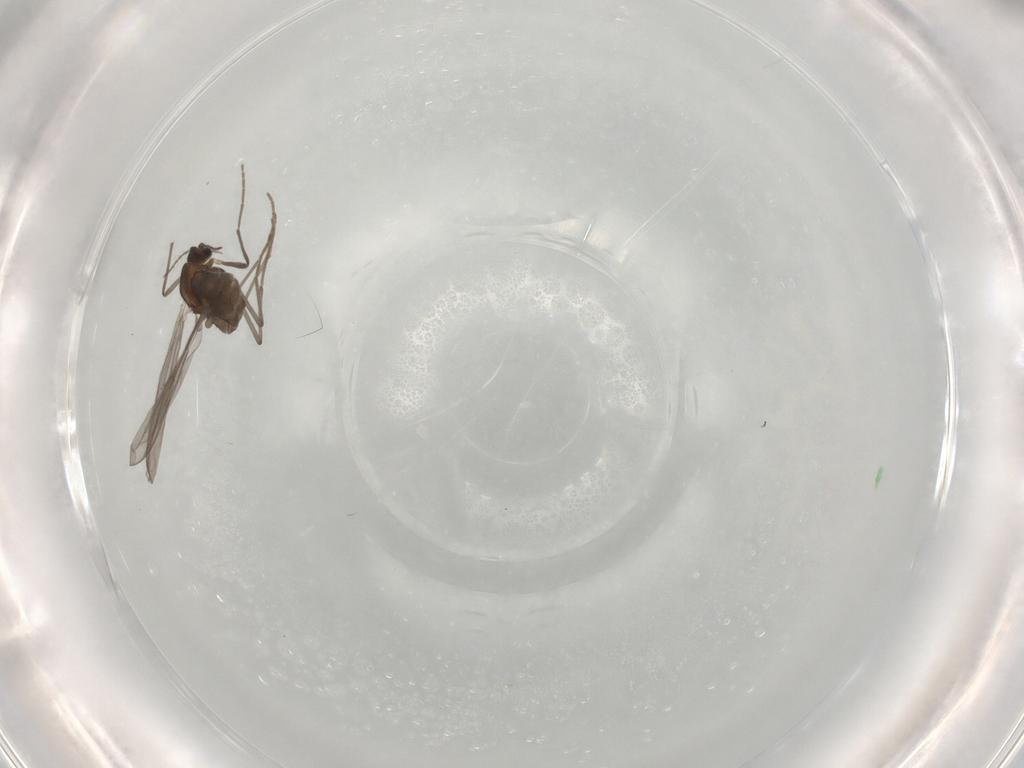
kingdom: Animalia
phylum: Arthropoda
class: Insecta
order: Diptera
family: Chironomidae
